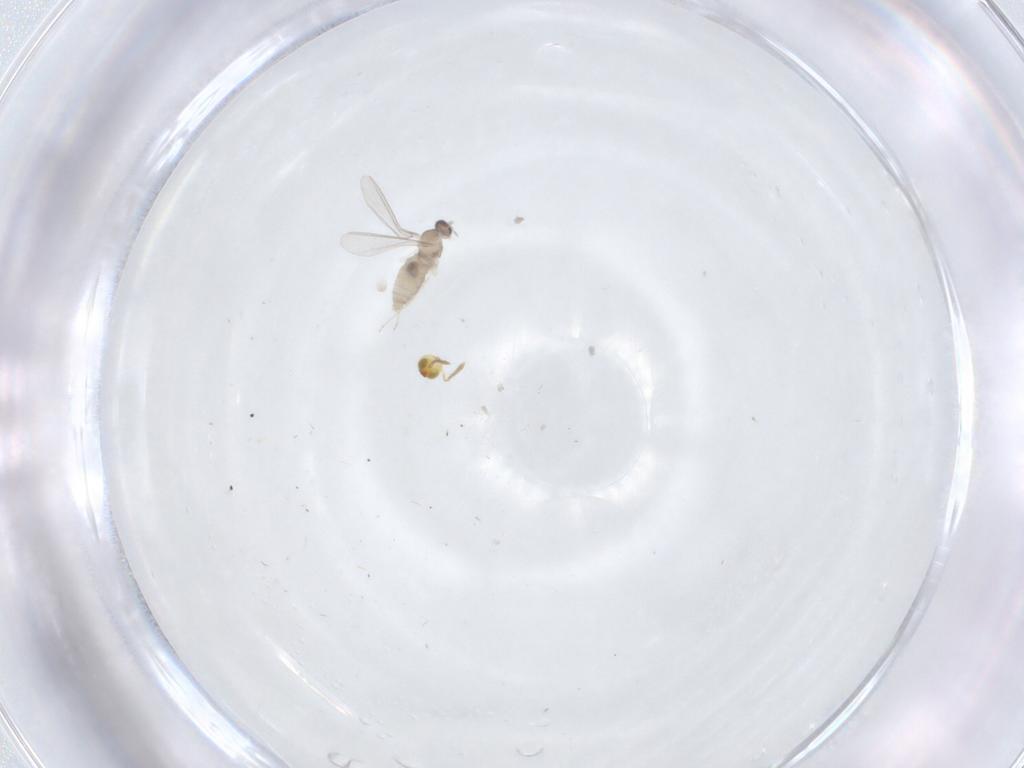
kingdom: Animalia
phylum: Arthropoda
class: Insecta
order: Diptera
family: Cecidomyiidae
